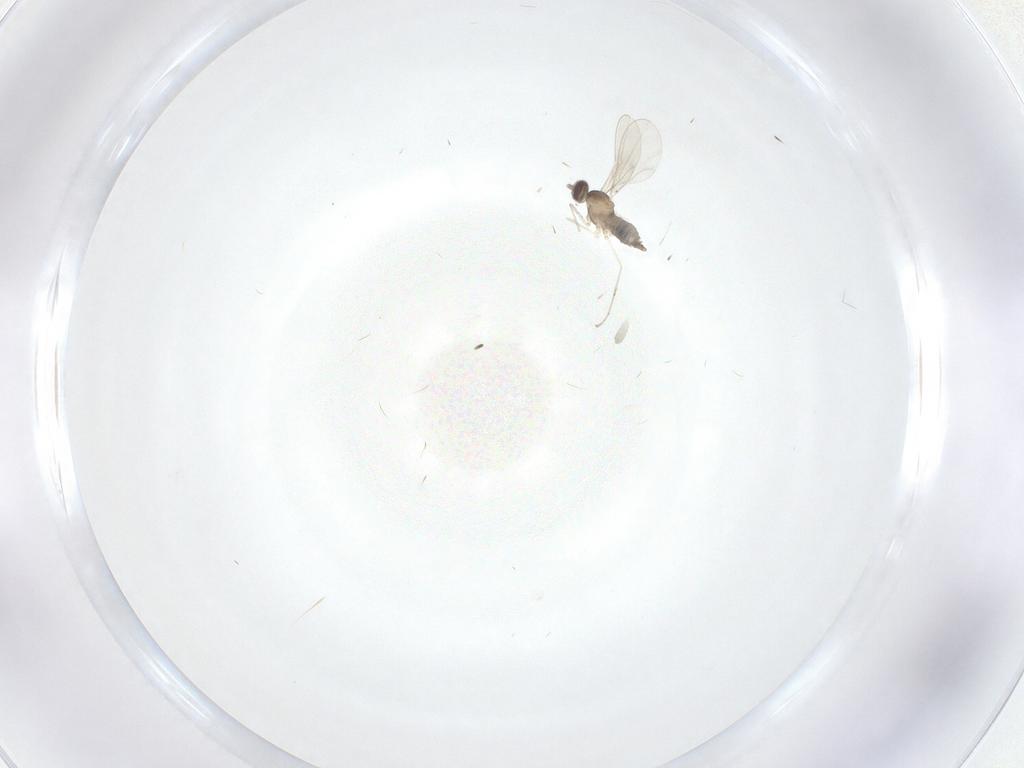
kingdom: Animalia
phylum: Arthropoda
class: Insecta
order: Diptera
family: Cecidomyiidae
